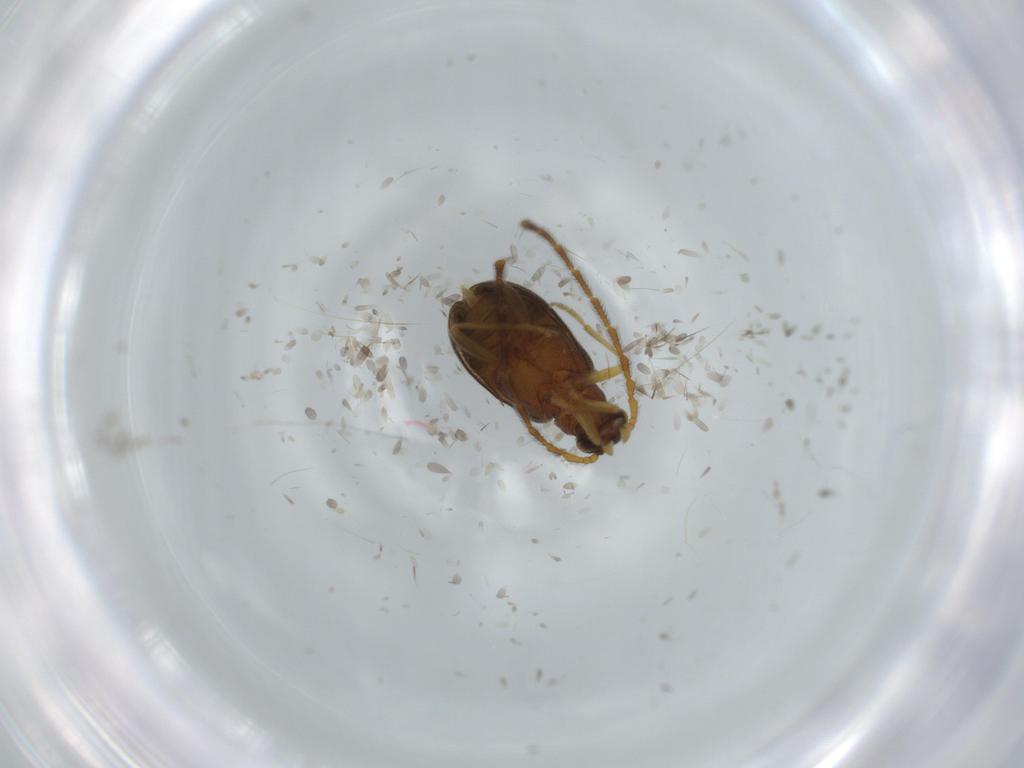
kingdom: Animalia
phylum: Arthropoda
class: Insecta
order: Coleoptera
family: Aderidae
